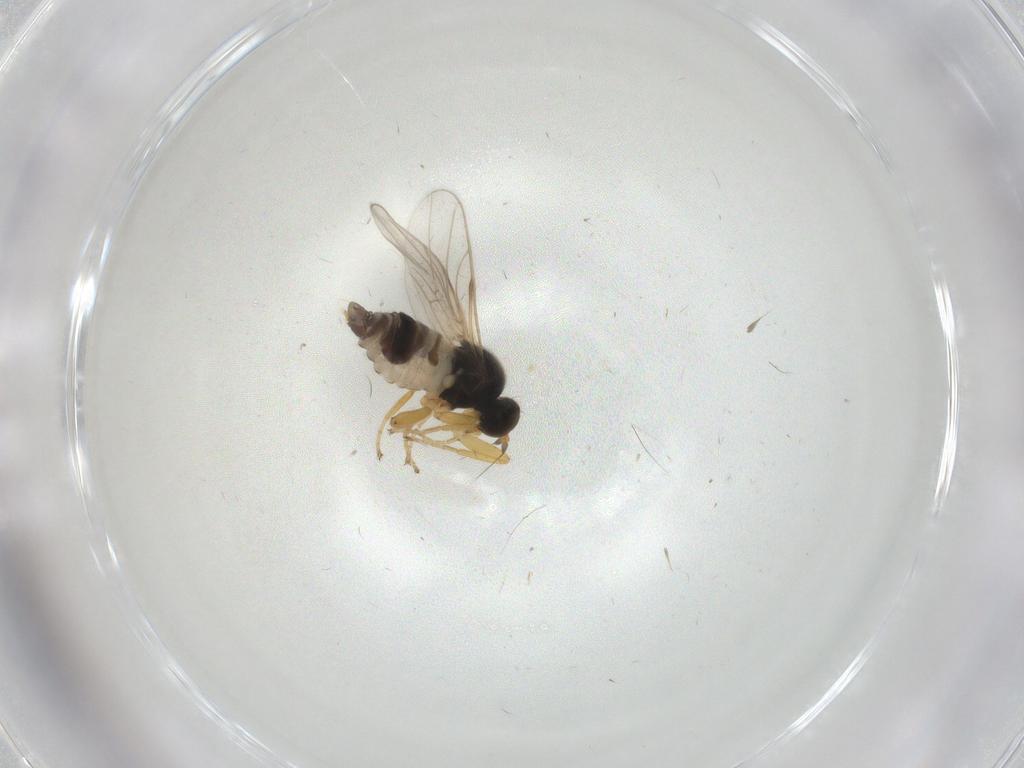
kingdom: Animalia
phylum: Arthropoda
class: Insecta
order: Diptera
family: Hybotidae
